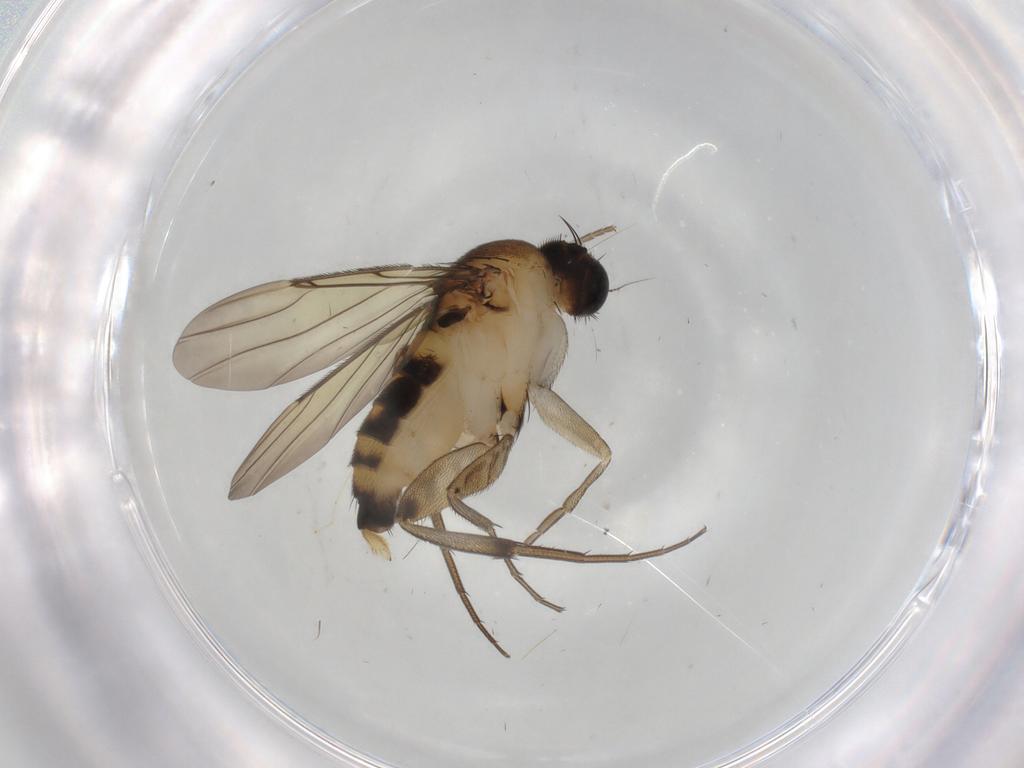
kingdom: Animalia
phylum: Arthropoda
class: Insecta
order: Diptera
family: Phoridae
